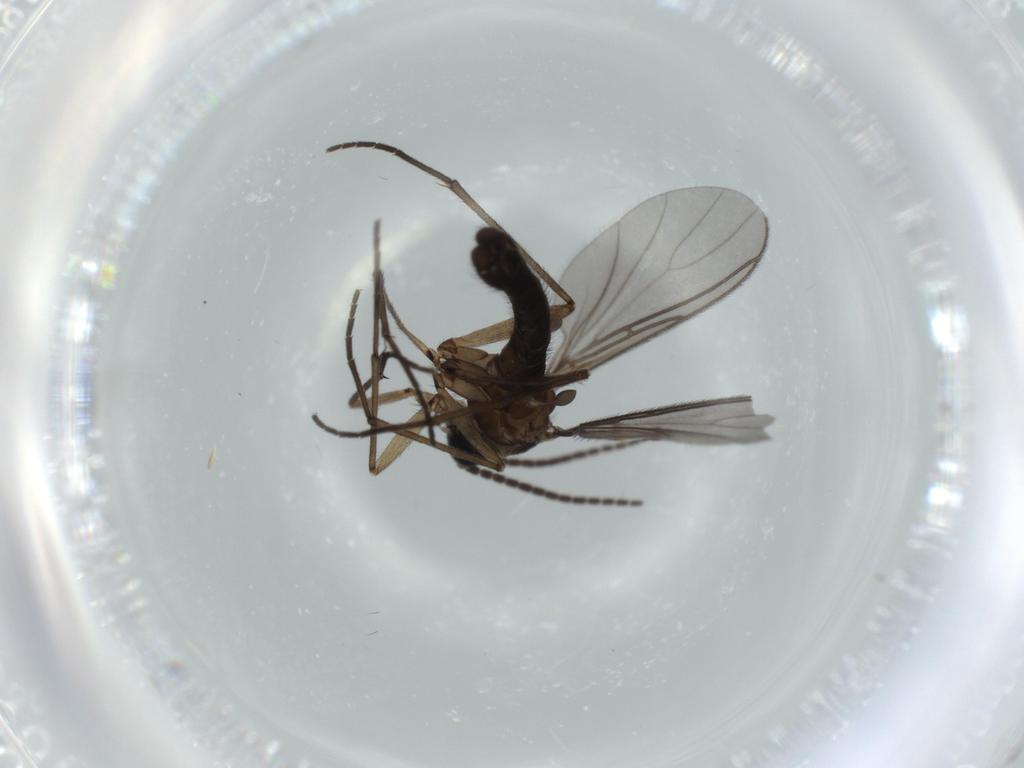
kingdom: Animalia
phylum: Arthropoda
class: Insecta
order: Diptera
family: Sciaridae
